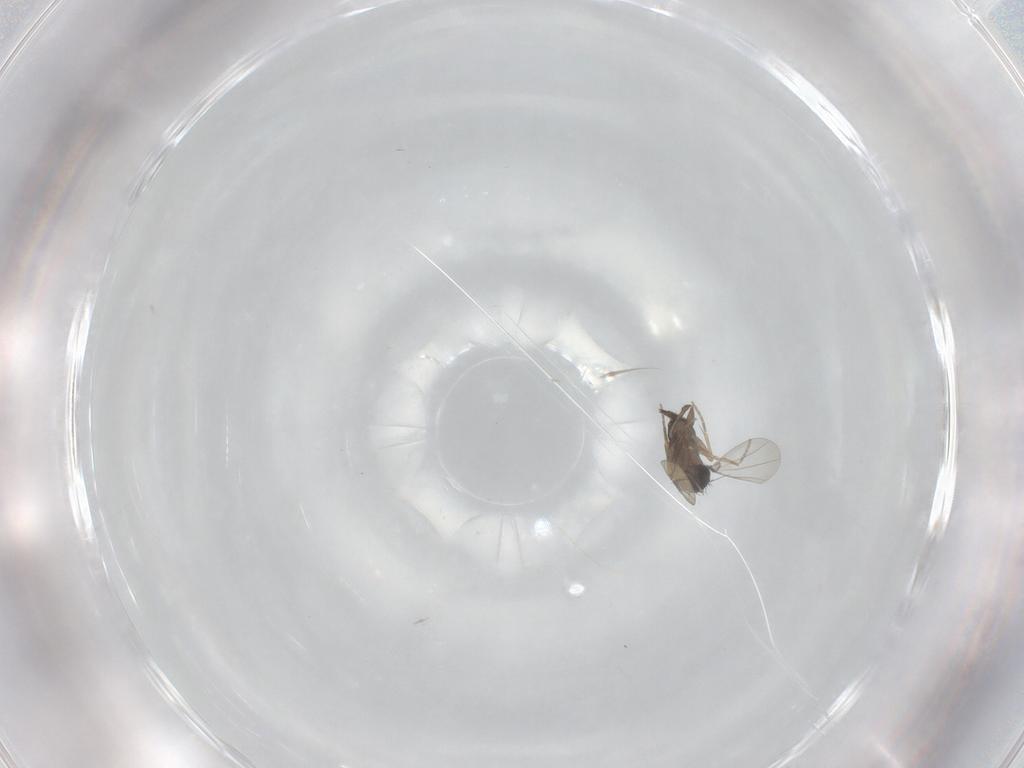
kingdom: Animalia
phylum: Arthropoda
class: Insecta
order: Diptera
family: Phoridae
